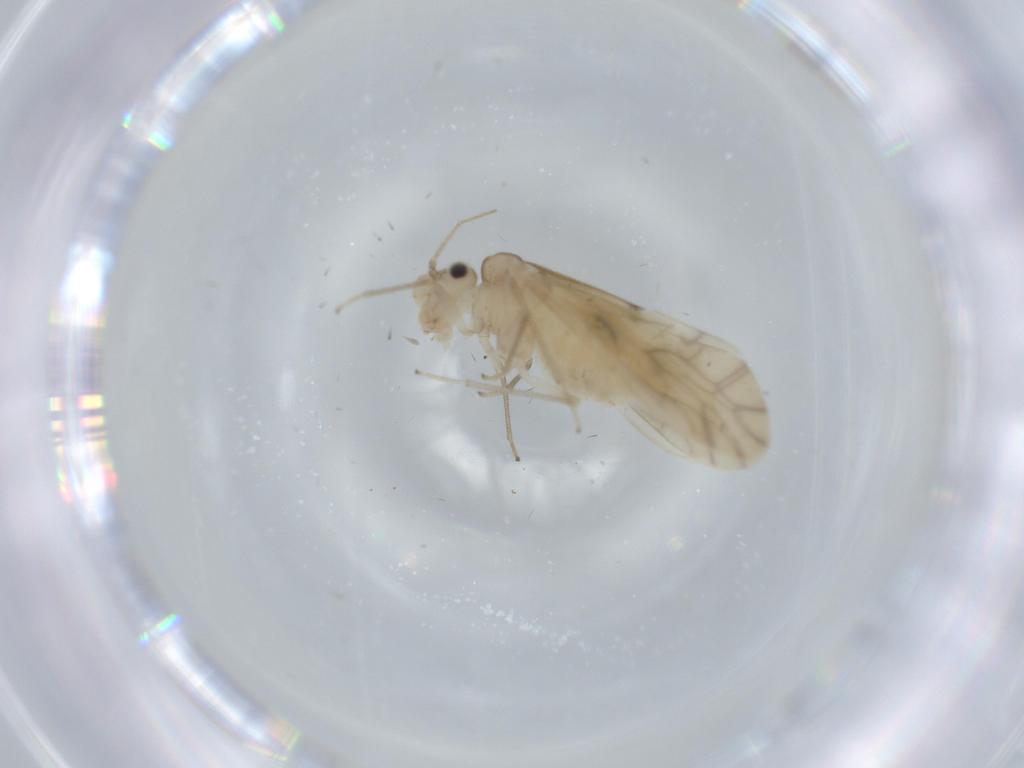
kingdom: Animalia
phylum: Arthropoda
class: Insecta
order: Psocodea
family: Caeciliusidae
